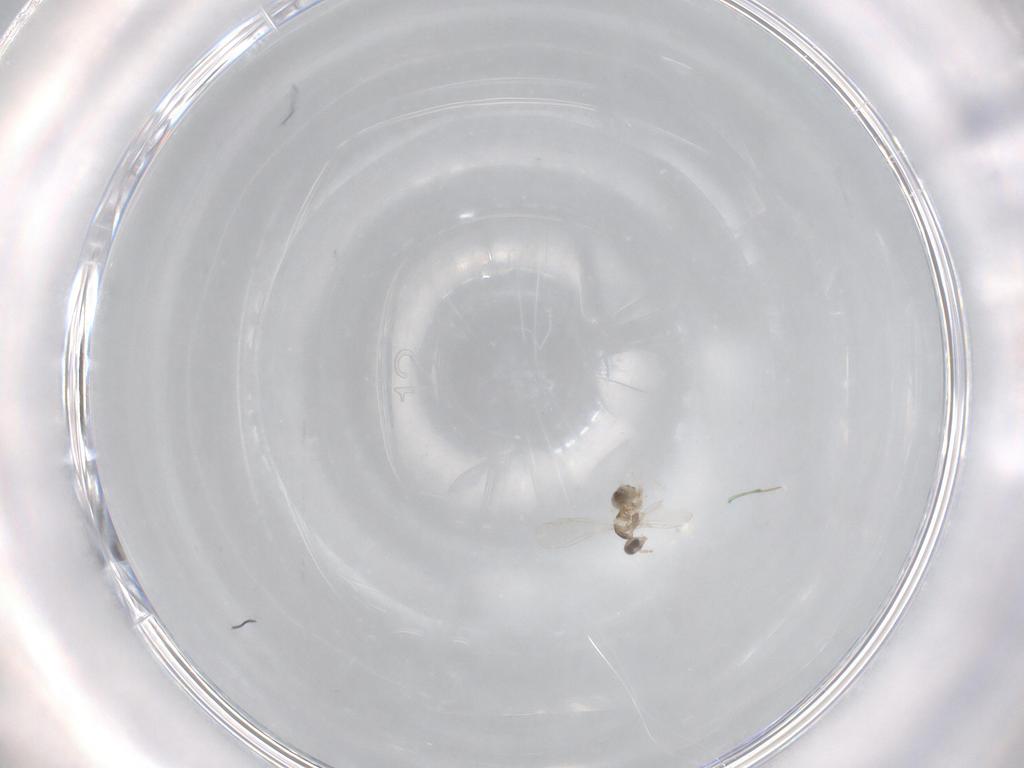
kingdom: Animalia
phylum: Arthropoda
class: Insecta
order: Diptera
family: Cecidomyiidae
